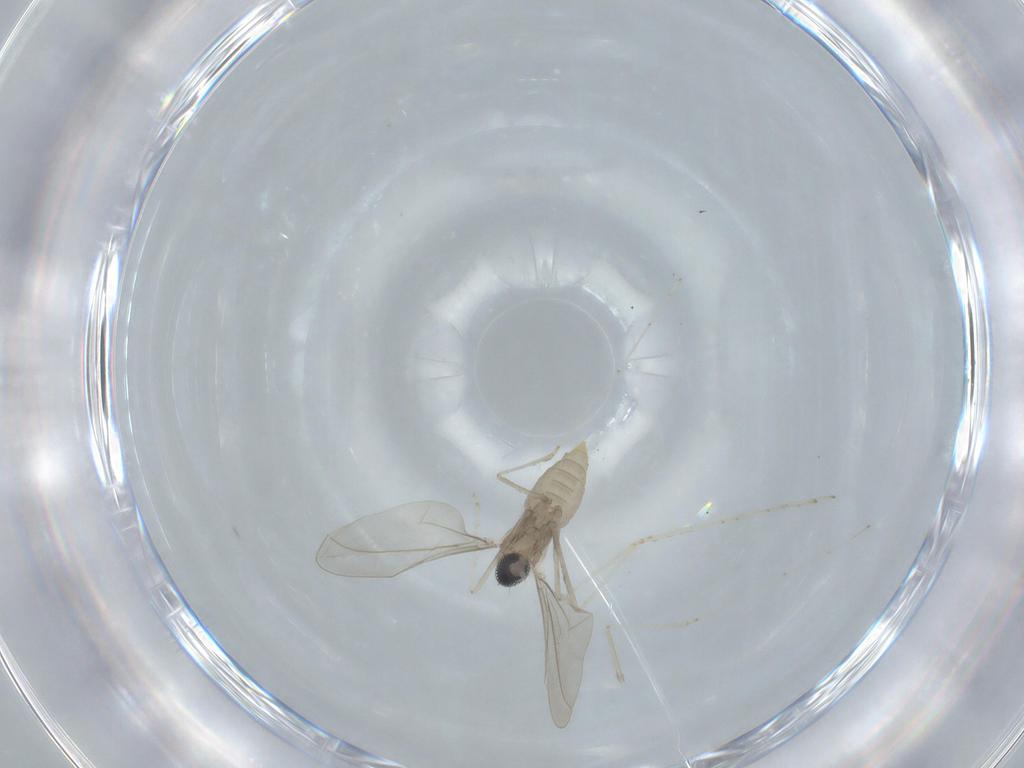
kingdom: Animalia
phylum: Arthropoda
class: Insecta
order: Diptera
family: Cecidomyiidae
